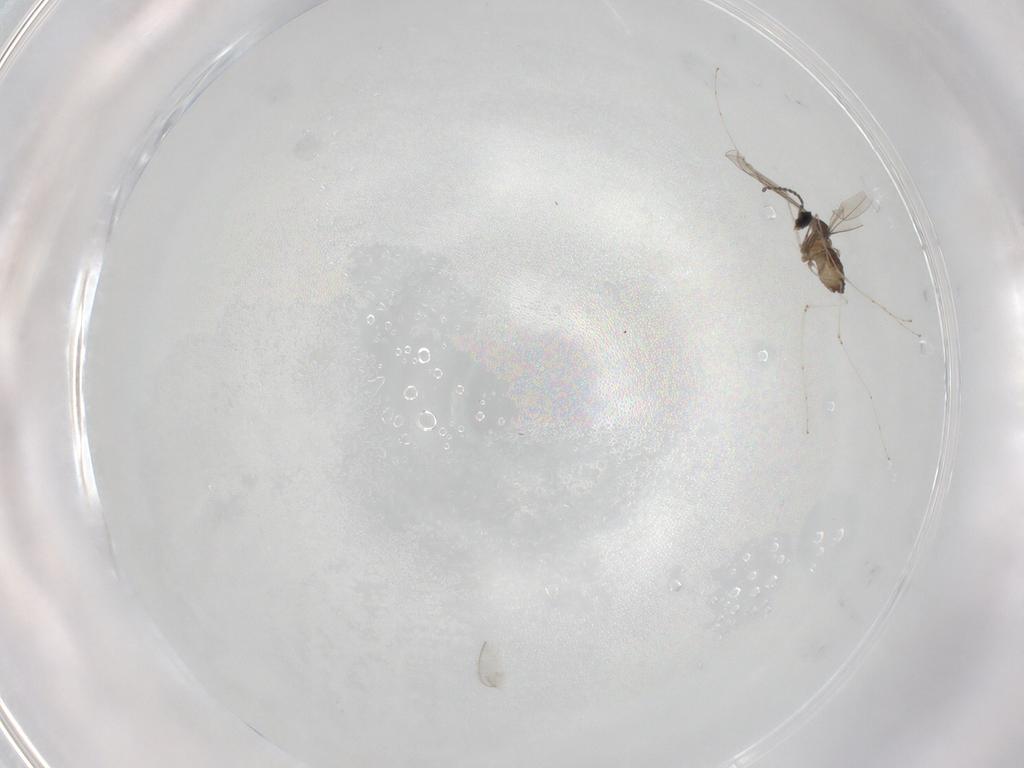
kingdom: Animalia
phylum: Arthropoda
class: Insecta
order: Diptera
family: Cecidomyiidae
